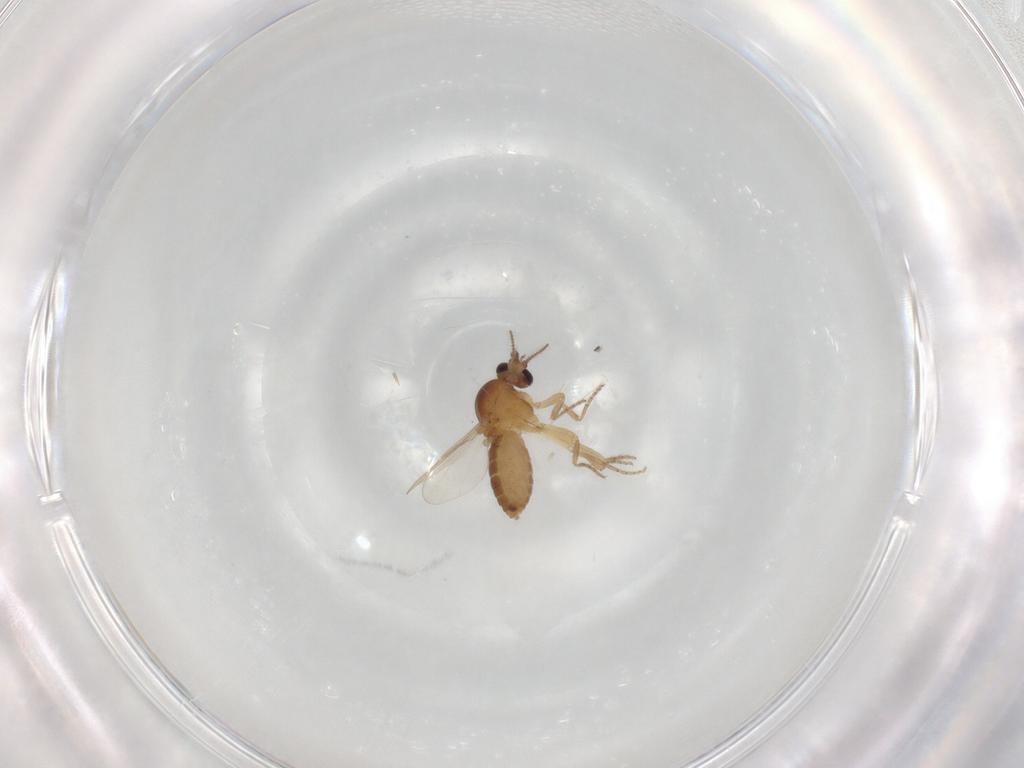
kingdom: Animalia
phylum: Arthropoda
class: Insecta
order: Diptera
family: Ceratopogonidae
